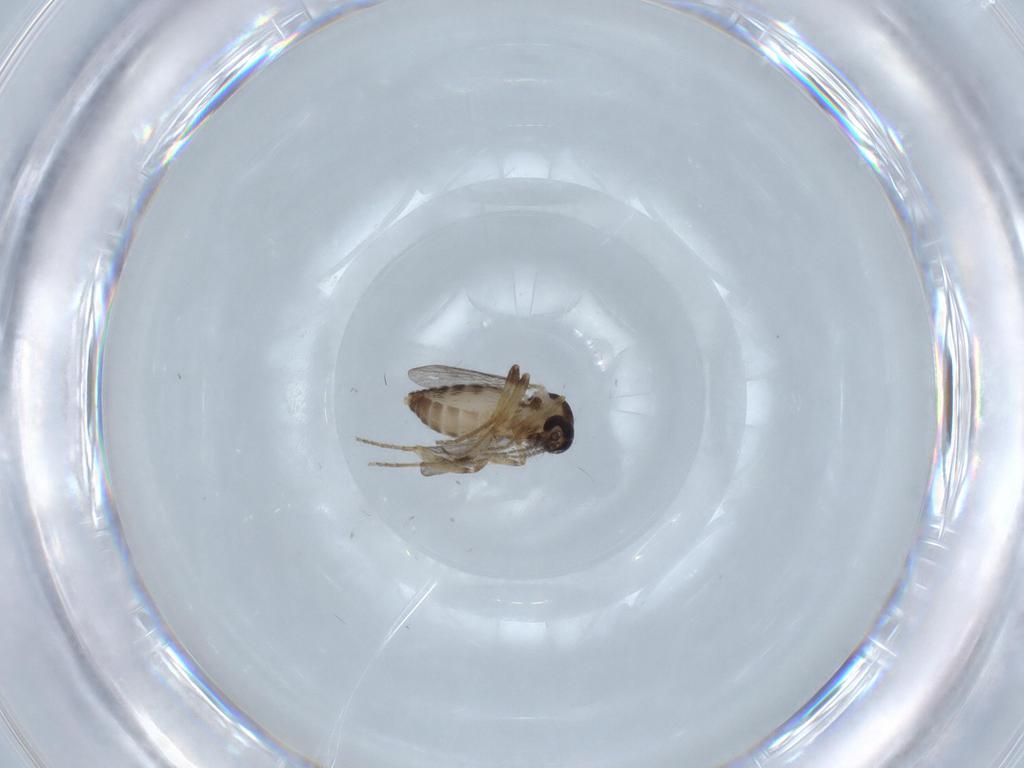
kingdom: Animalia
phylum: Arthropoda
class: Insecta
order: Diptera
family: Ceratopogonidae
